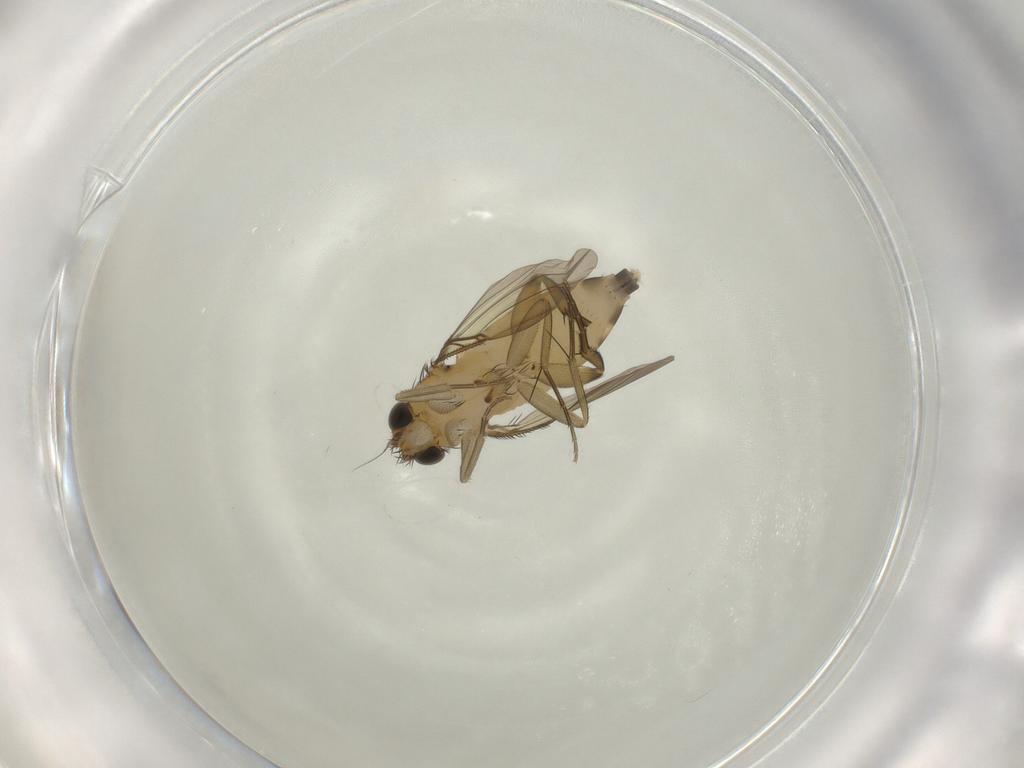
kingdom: Animalia
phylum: Arthropoda
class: Insecta
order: Diptera
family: Phoridae
